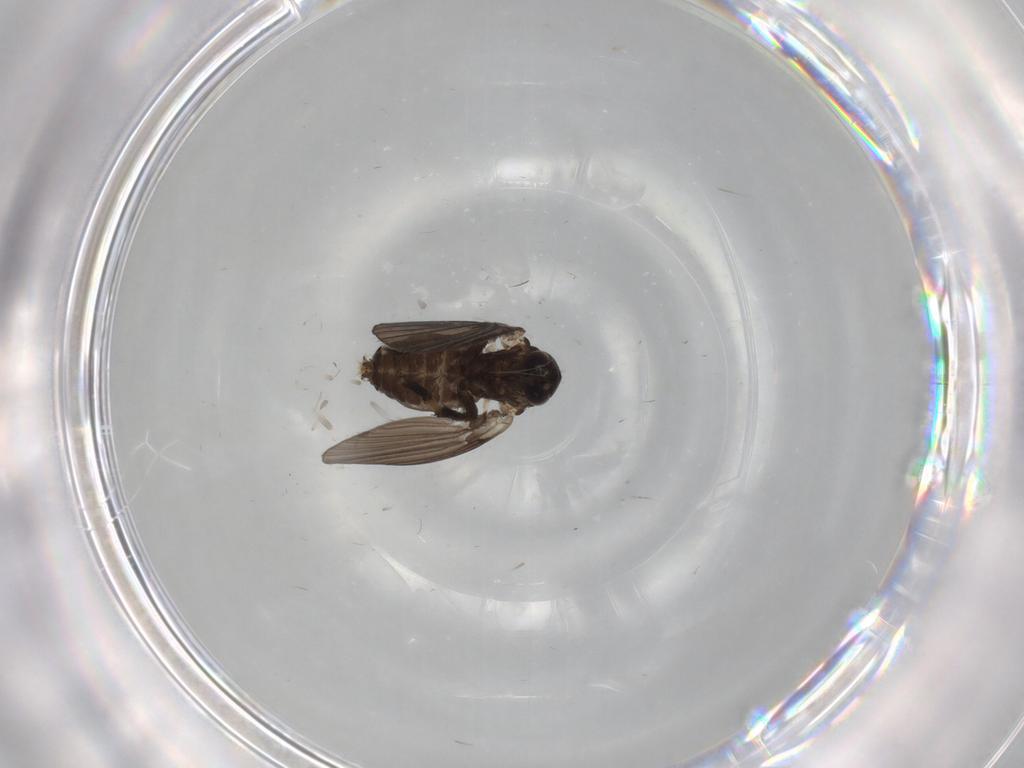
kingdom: Animalia
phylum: Arthropoda
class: Insecta
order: Diptera
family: Psychodidae
